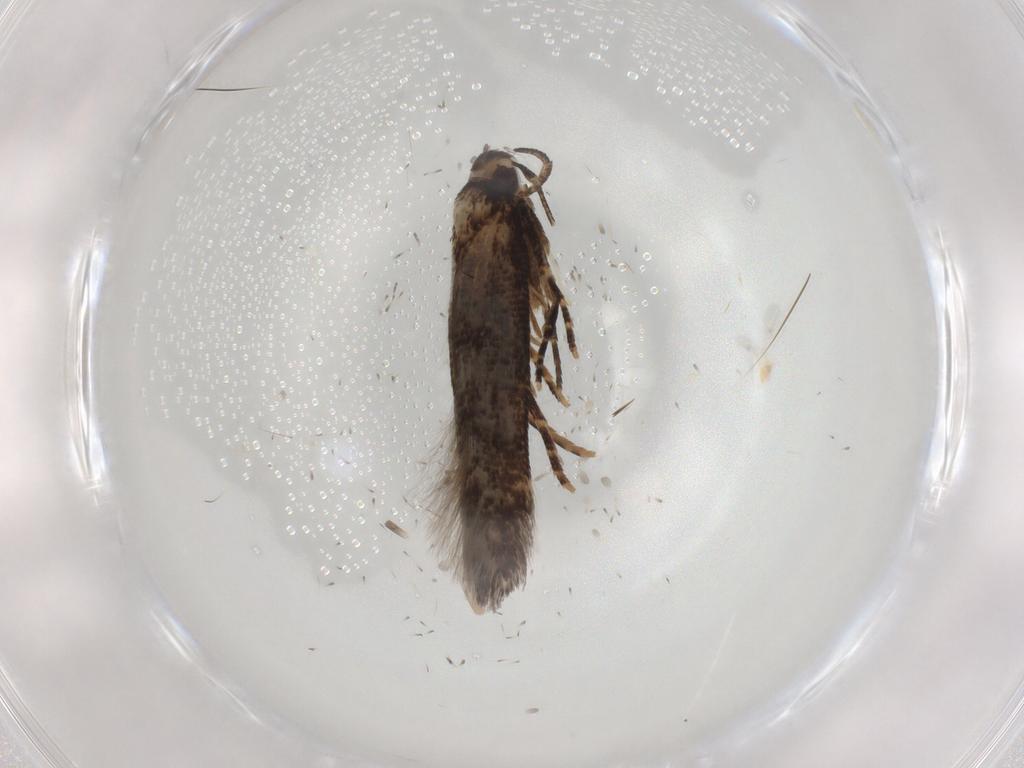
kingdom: Animalia
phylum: Arthropoda
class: Insecta
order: Lepidoptera
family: Cosmopterigidae
